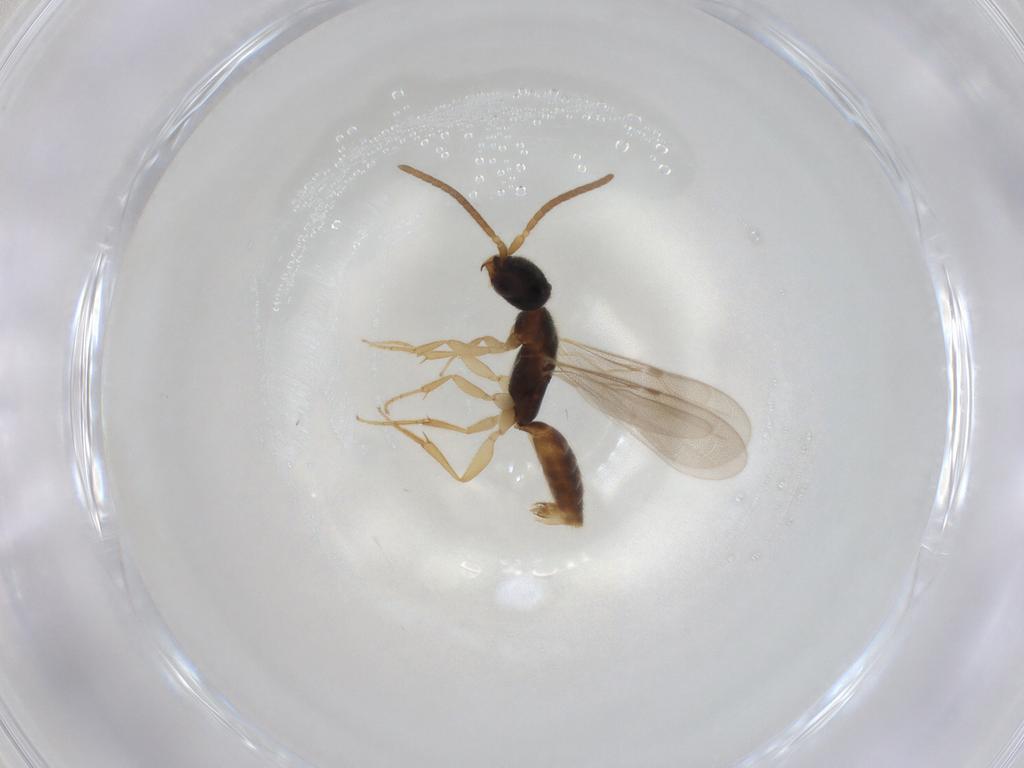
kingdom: Animalia
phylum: Arthropoda
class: Insecta
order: Hymenoptera
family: Bethylidae
